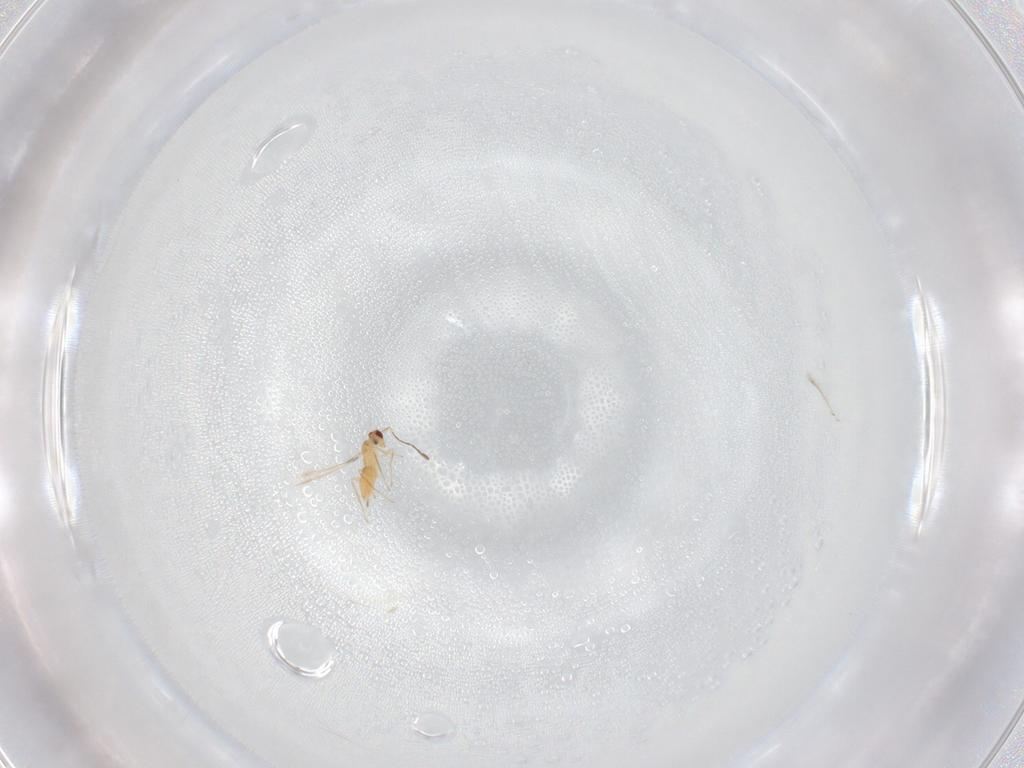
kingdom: Animalia
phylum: Arthropoda
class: Insecta
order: Hymenoptera
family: Mymaridae
